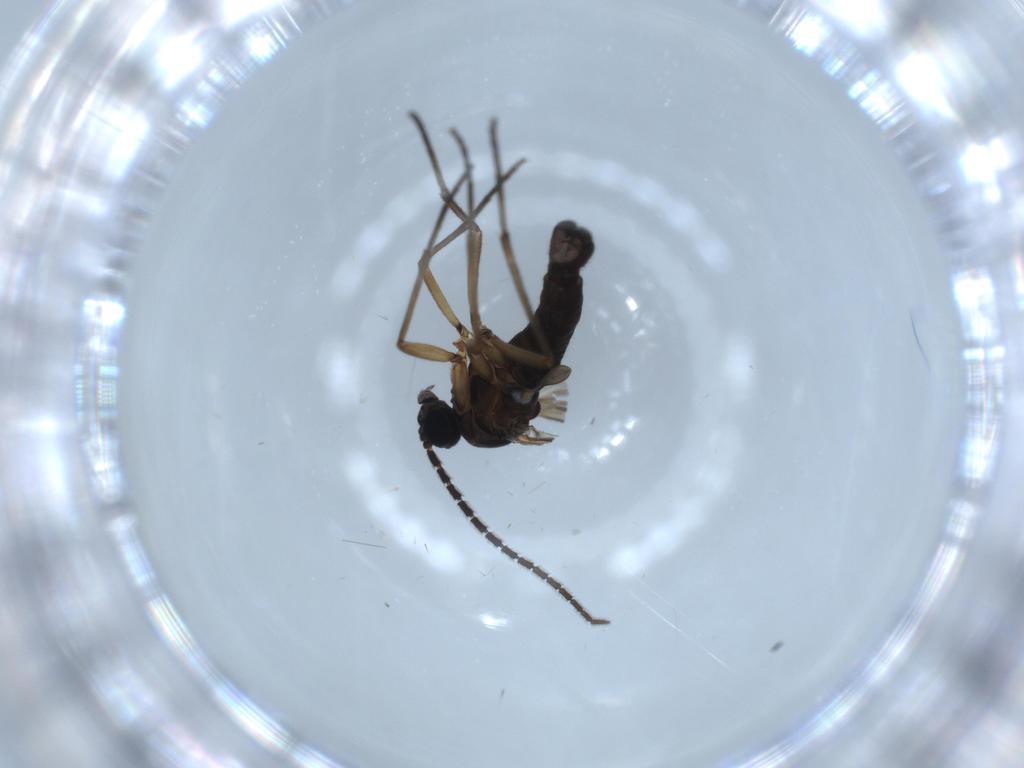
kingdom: Animalia
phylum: Arthropoda
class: Insecta
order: Diptera
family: Sciaridae
